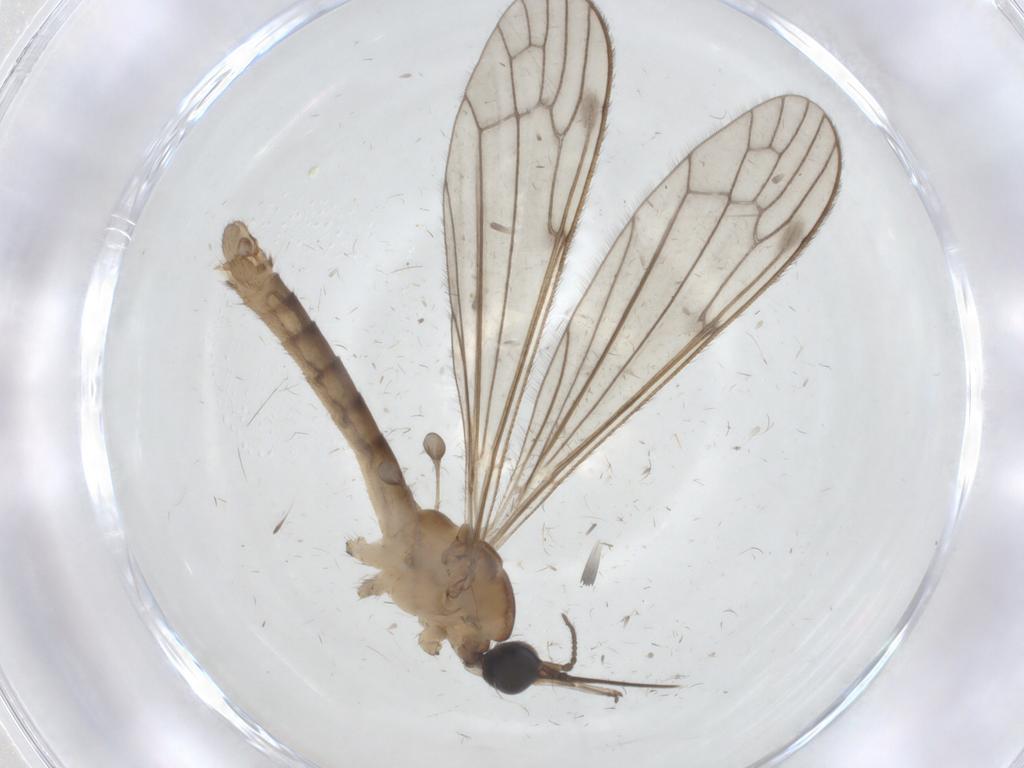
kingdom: Animalia
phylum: Arthropoda
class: Insecta
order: Diptera
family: Limoniidae
